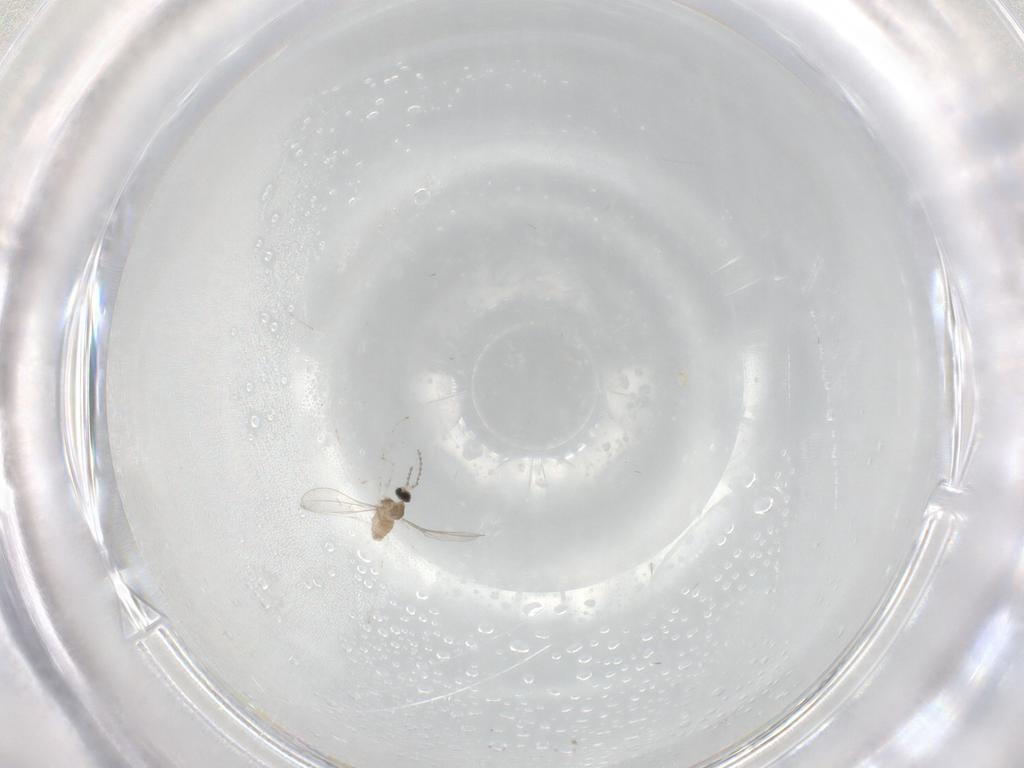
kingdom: Animalia
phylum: Arthropoda
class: Insecta
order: Diptera
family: Cecidomyiidae
